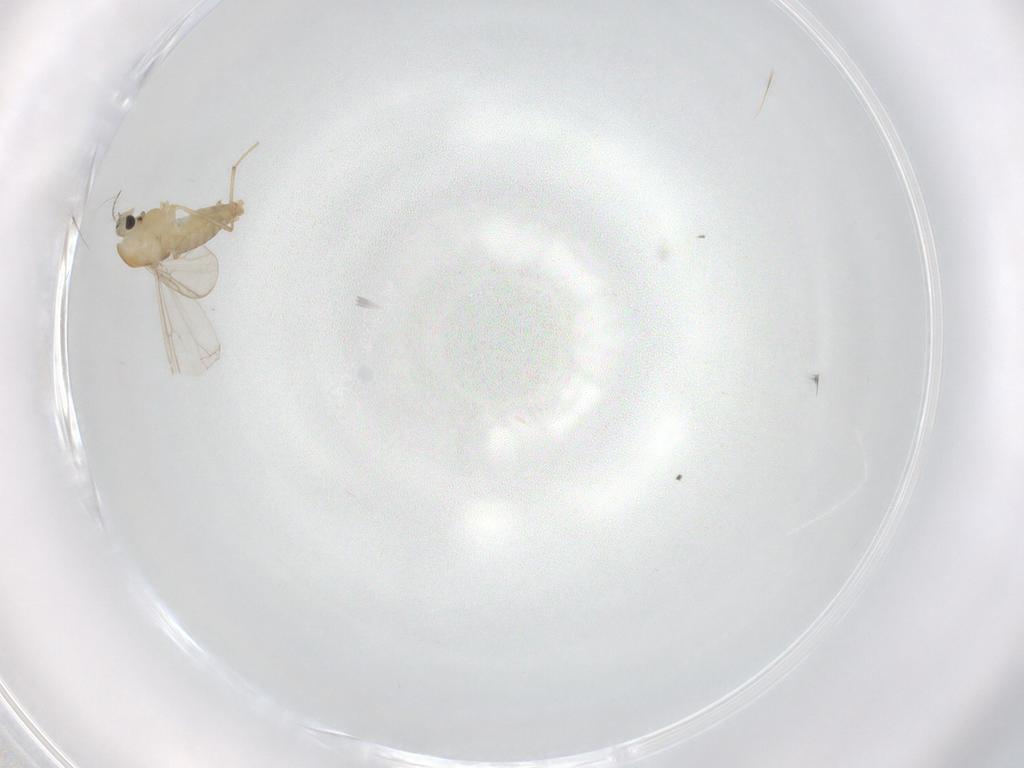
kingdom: Animalia
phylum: Arthropoda
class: Insecta
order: Diptera
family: Chironomidae
